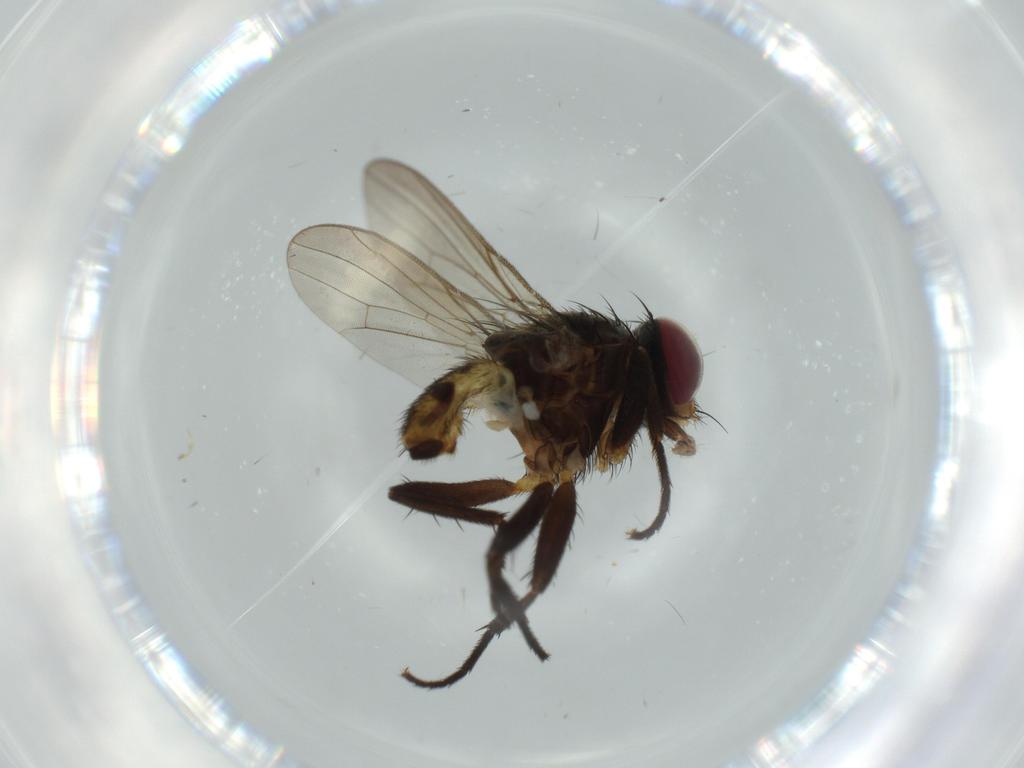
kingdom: Animalia
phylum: Arthropoda
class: Insecta
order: Diptera
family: Anthomyiidae
